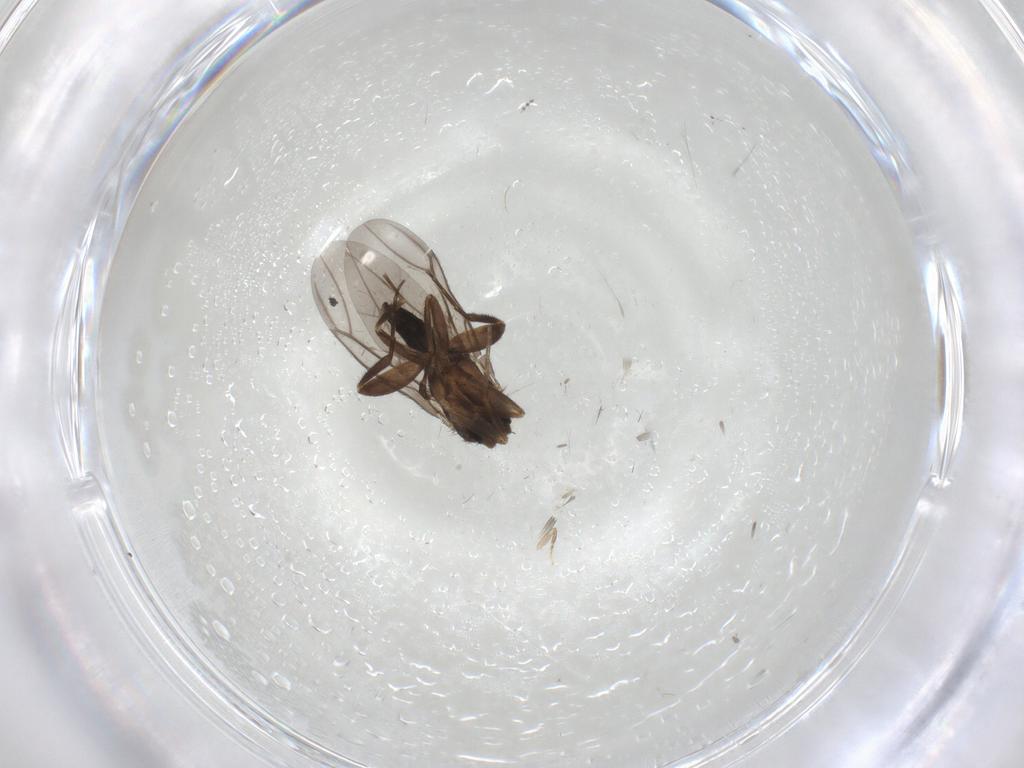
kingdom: Animalia
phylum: Arthropoda
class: Insecta
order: Diptera
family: Phoridae
